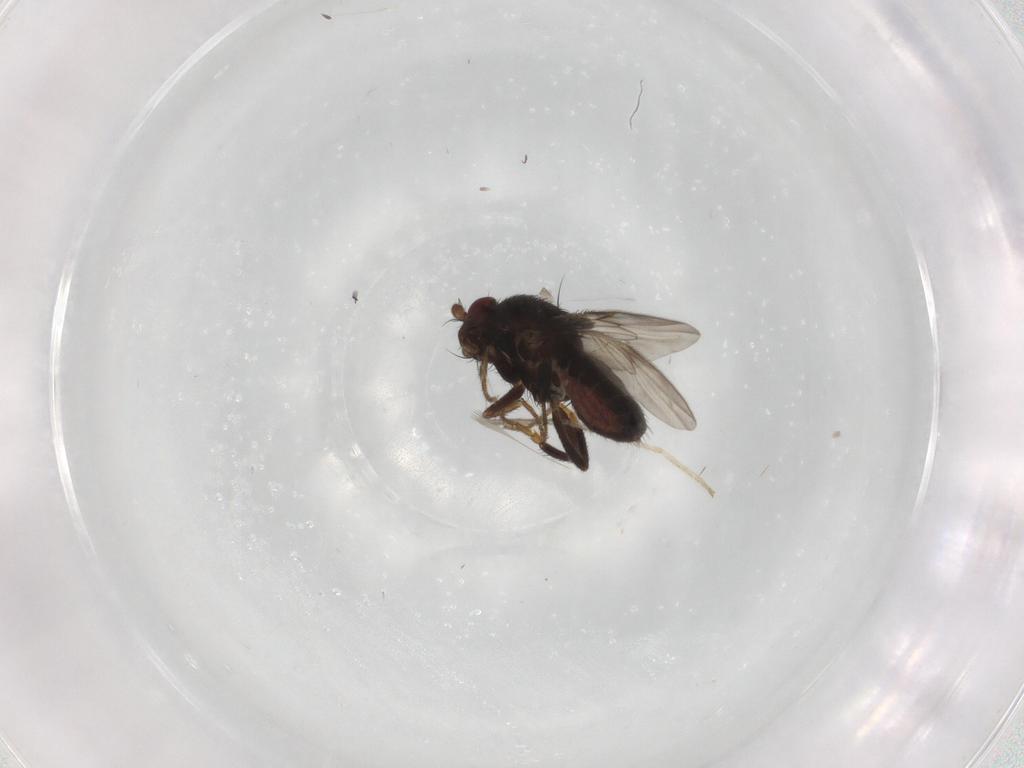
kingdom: Animalia
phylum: Arthropoda
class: Insecta
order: Diptera
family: Sphaeroceridae
